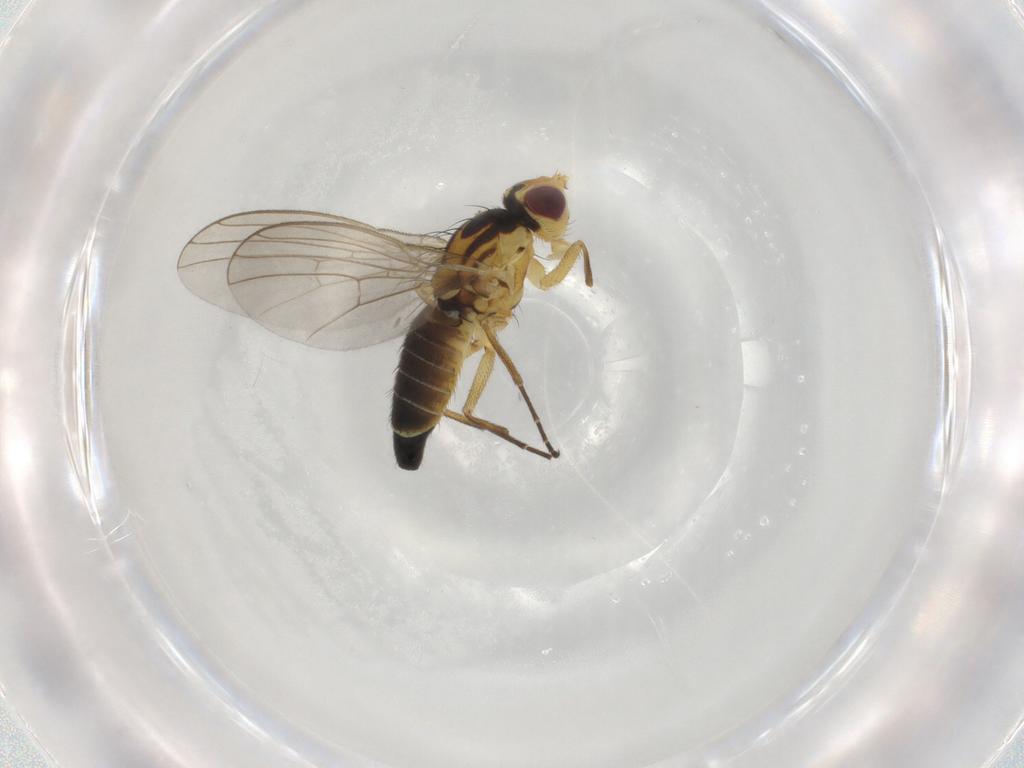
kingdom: Animalia
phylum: Arthropoda
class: Insecta
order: Diptera
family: Agromyzidae
